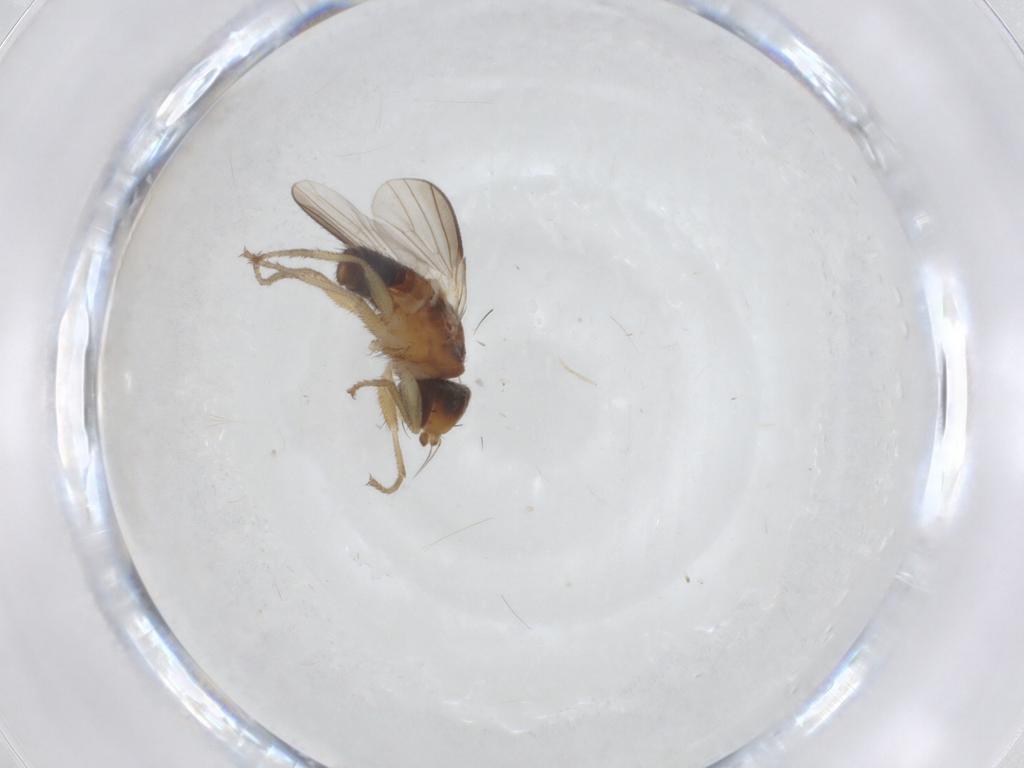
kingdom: Animalia
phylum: Arthropoda
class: Insecta
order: Diptera
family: Heleomyzidae
